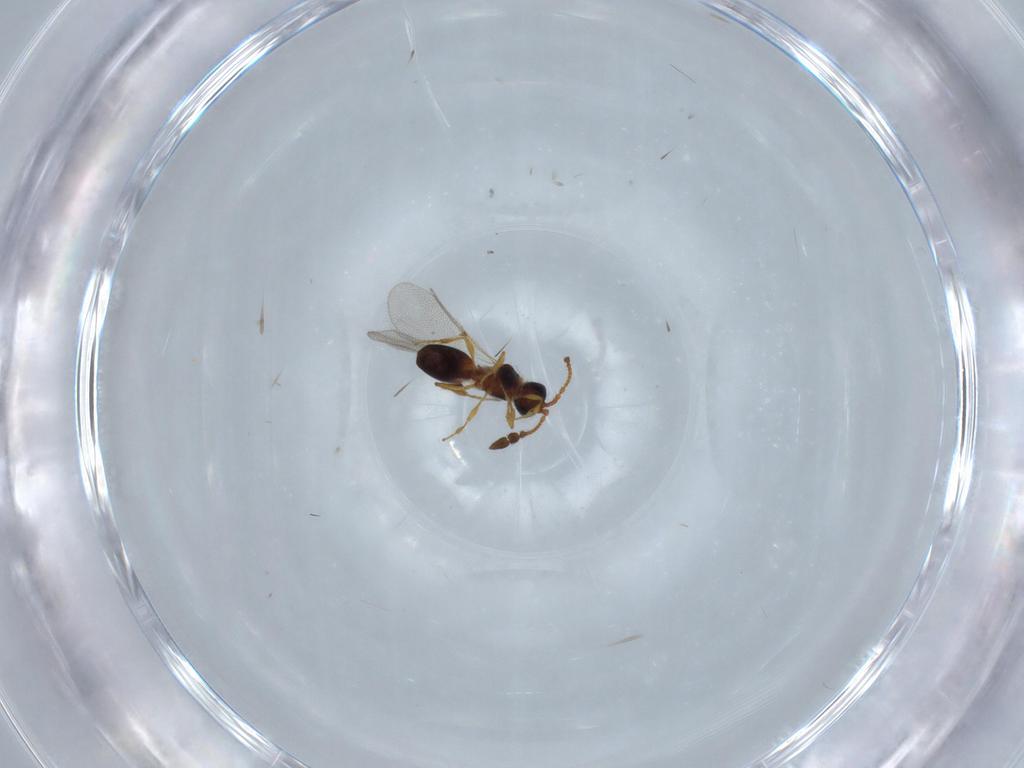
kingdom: Animalia
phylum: Arthropoda
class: Insecta
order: Hymenoptera
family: Diapriidae
